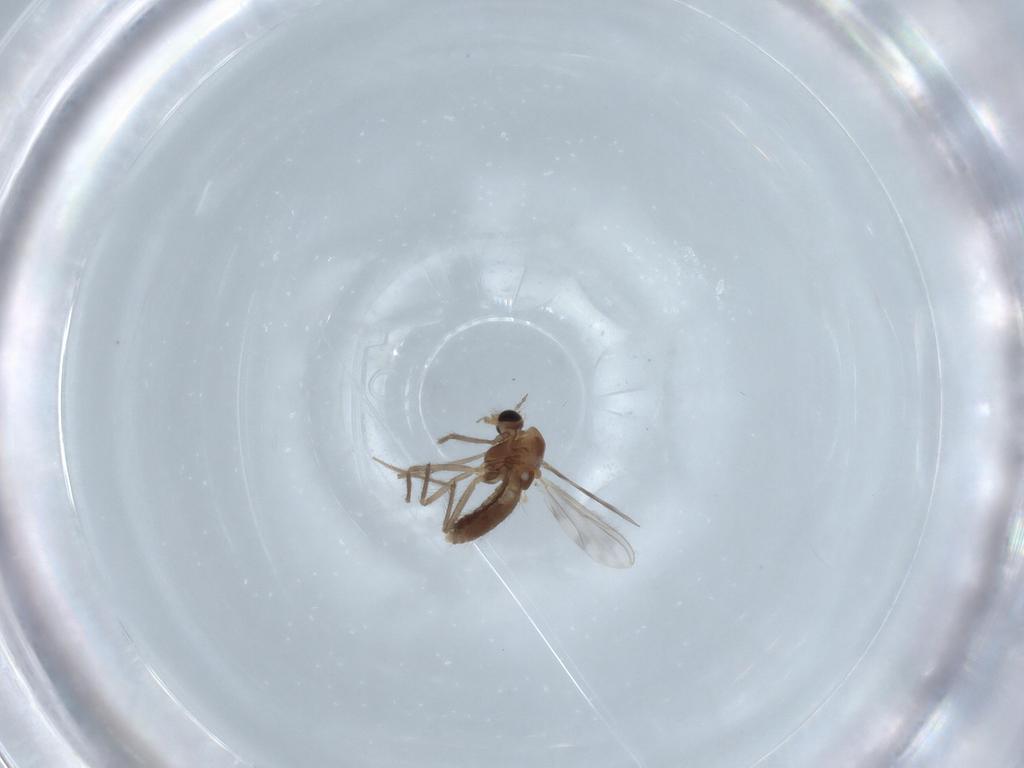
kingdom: Animalia
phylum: Arthropoda
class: Insecta
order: Diptera
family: Chironomidae
